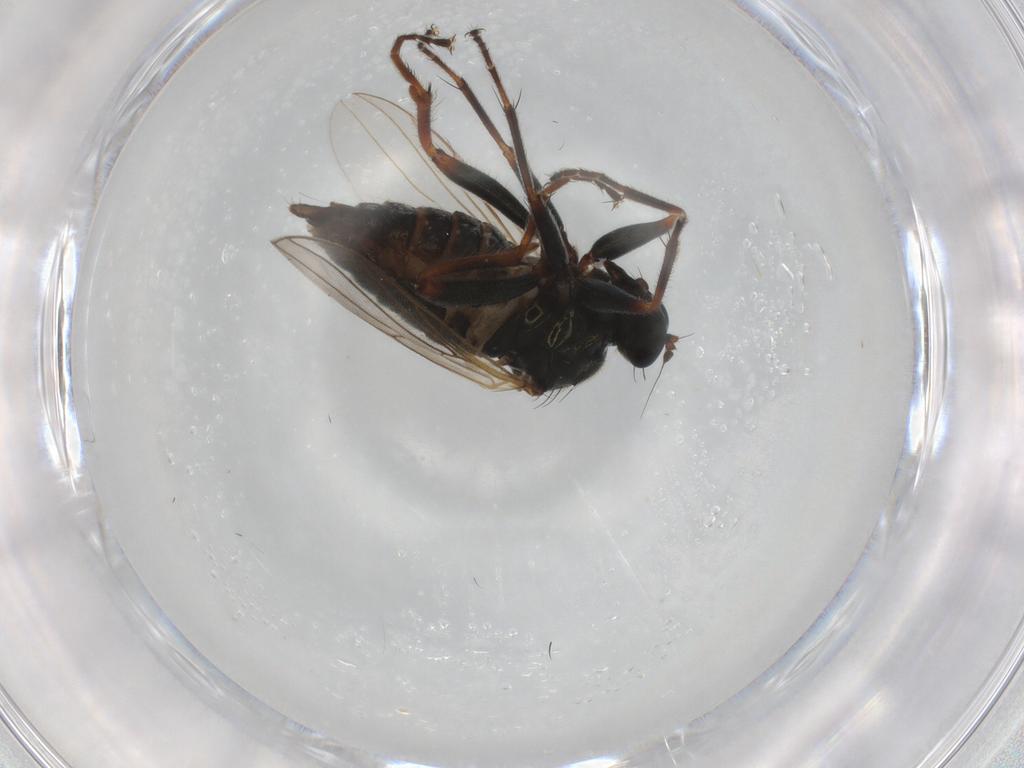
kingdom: Animalia
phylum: Arthropoda
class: Insecta
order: Diptera
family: Hybotidae
